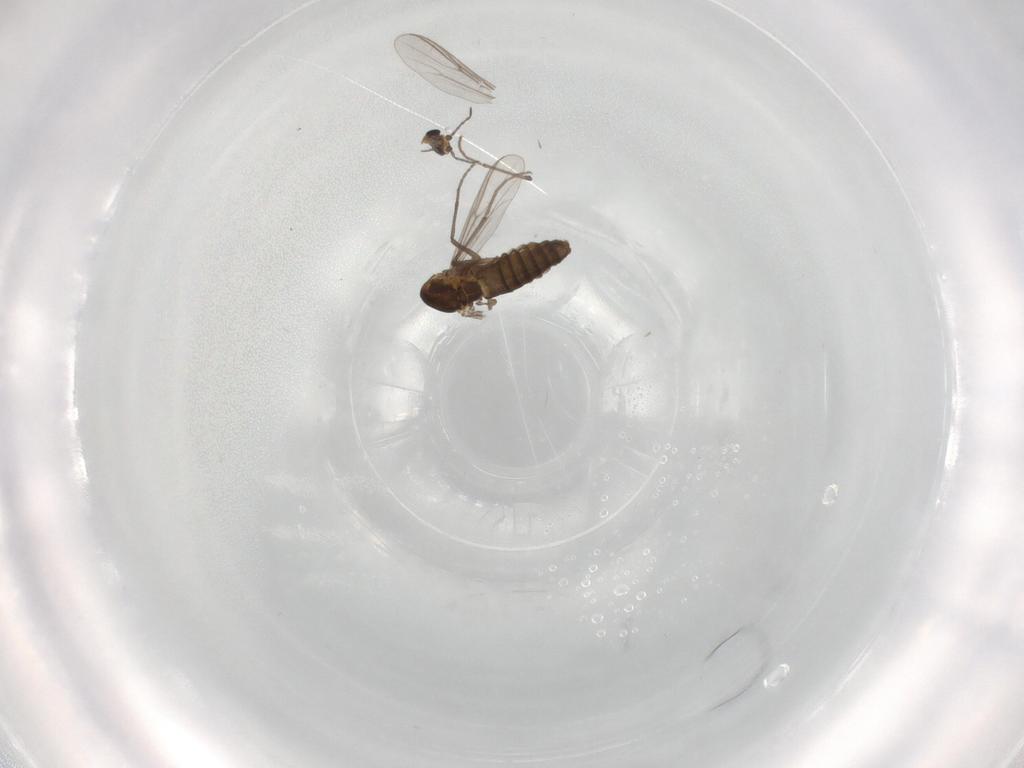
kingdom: Animalia
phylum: Arthropoda
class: Insecta
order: Diptera
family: Chironomidae
